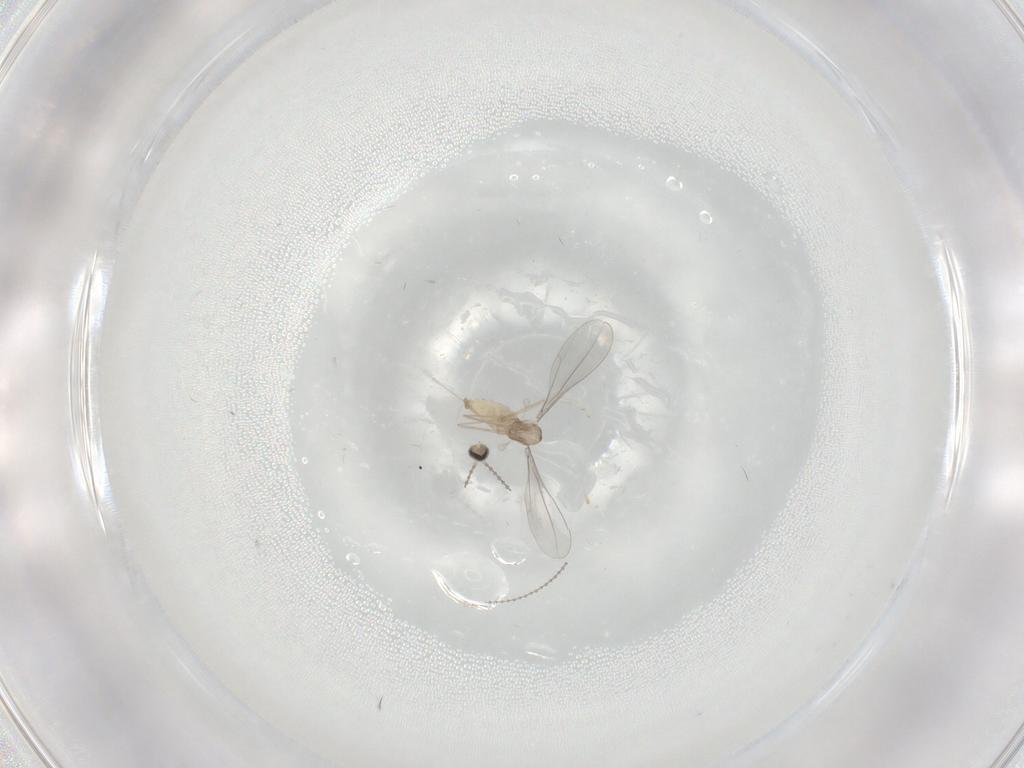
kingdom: Animalia
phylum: Arthropoda
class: Insecta
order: Diptera
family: Cecidomyiidae
